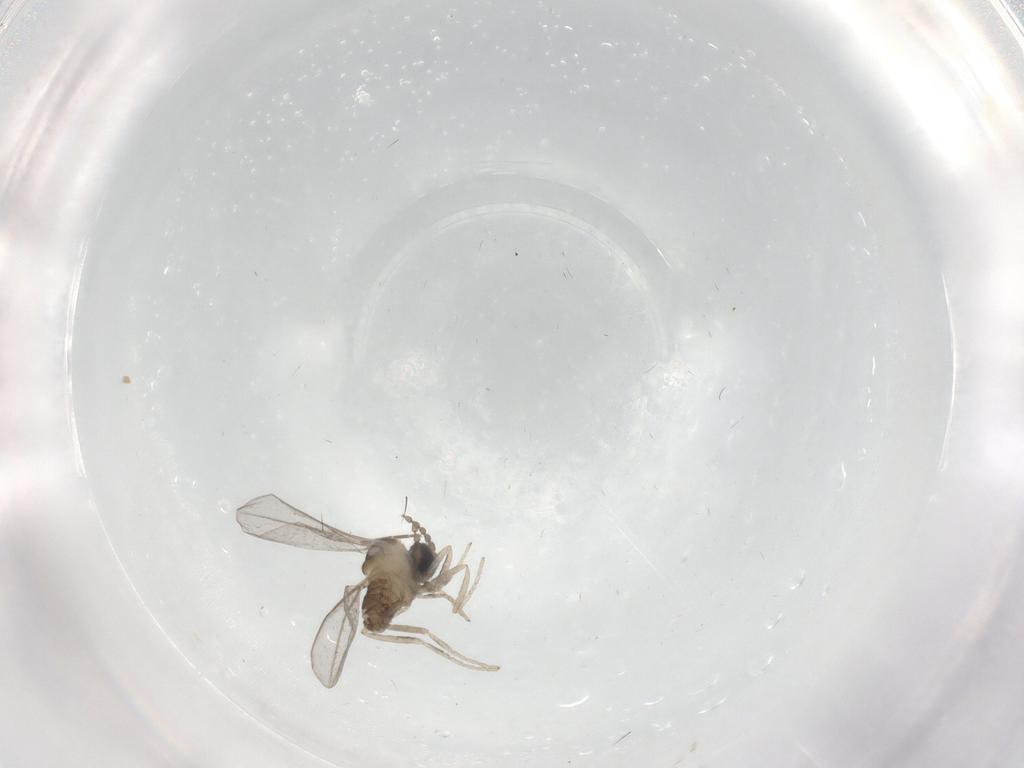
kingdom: Animalia
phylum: Arthropoda
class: Insecta
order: Diptera
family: Cecidomyiidae
